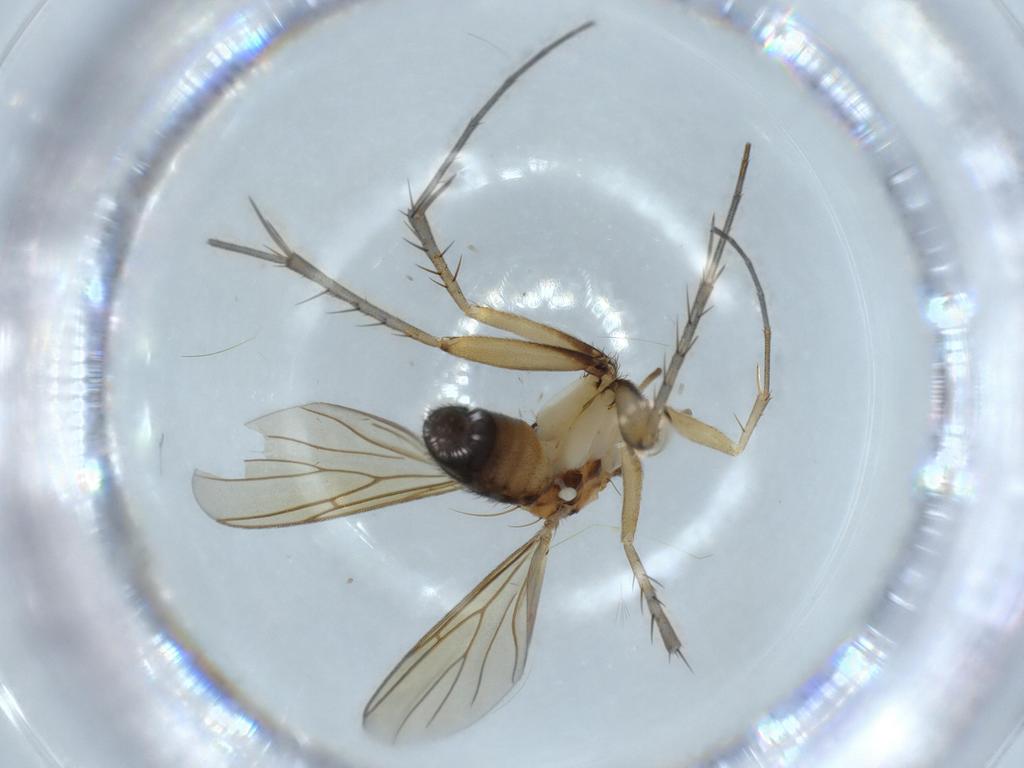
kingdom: Animalia
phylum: Arthropoda
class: Insecta
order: Diptera
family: Mycetophilidae
